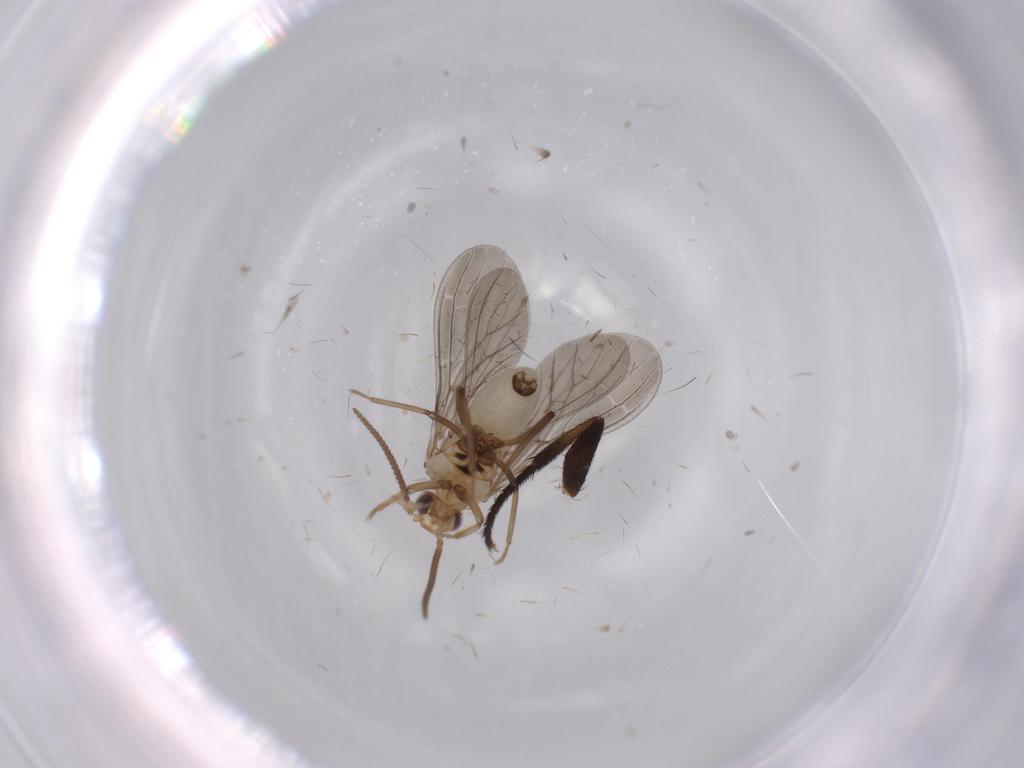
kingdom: Animalia
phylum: Arthropoda
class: Insecta
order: Neuroptera
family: Coniopterygidae
